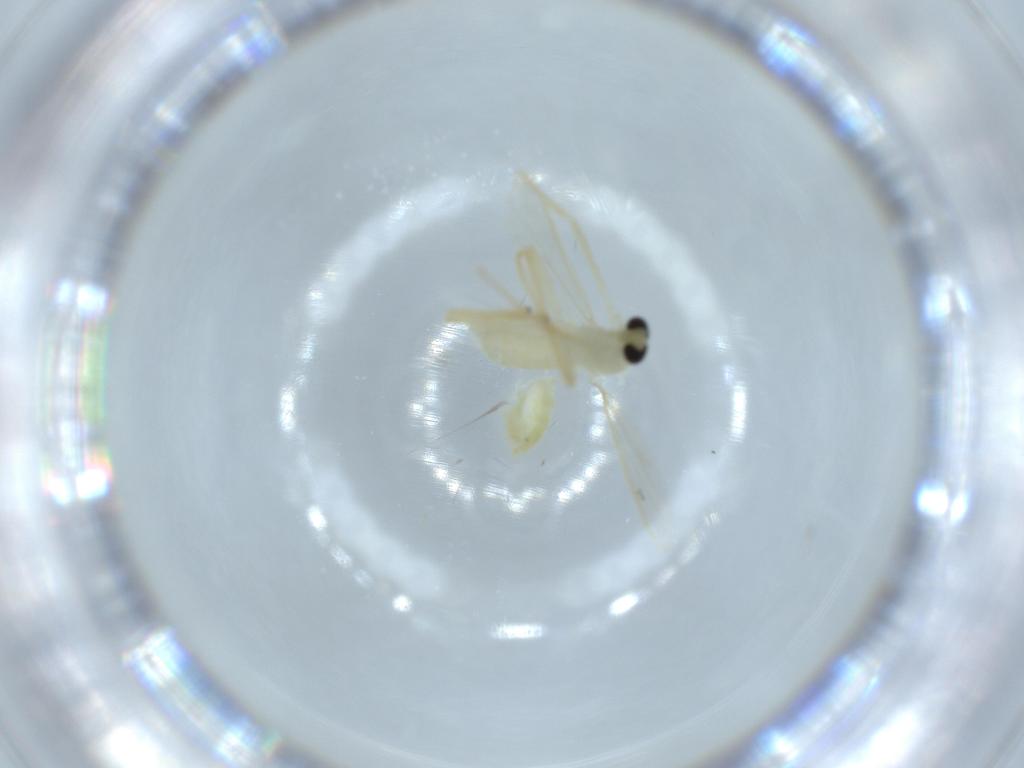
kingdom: Animalia
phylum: Arthropoda
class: Insecta
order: Diptera
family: Chironomidae
